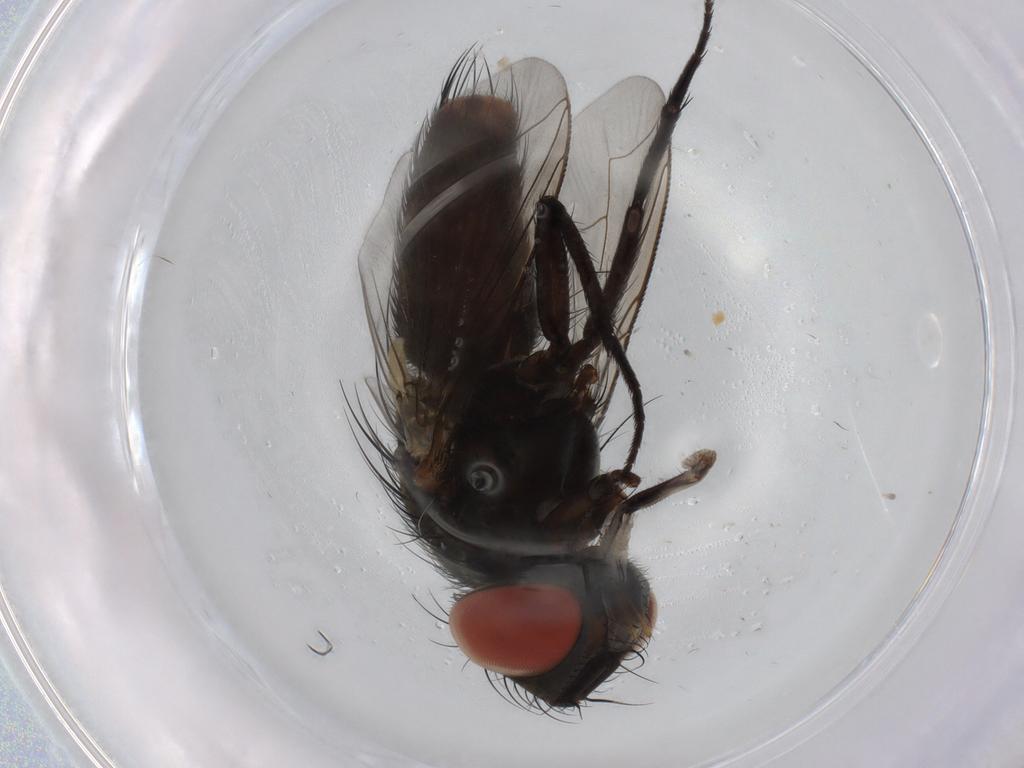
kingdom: Animalia
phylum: Arthropoda
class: Insecta
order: Diptera
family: Sarcophagidae
